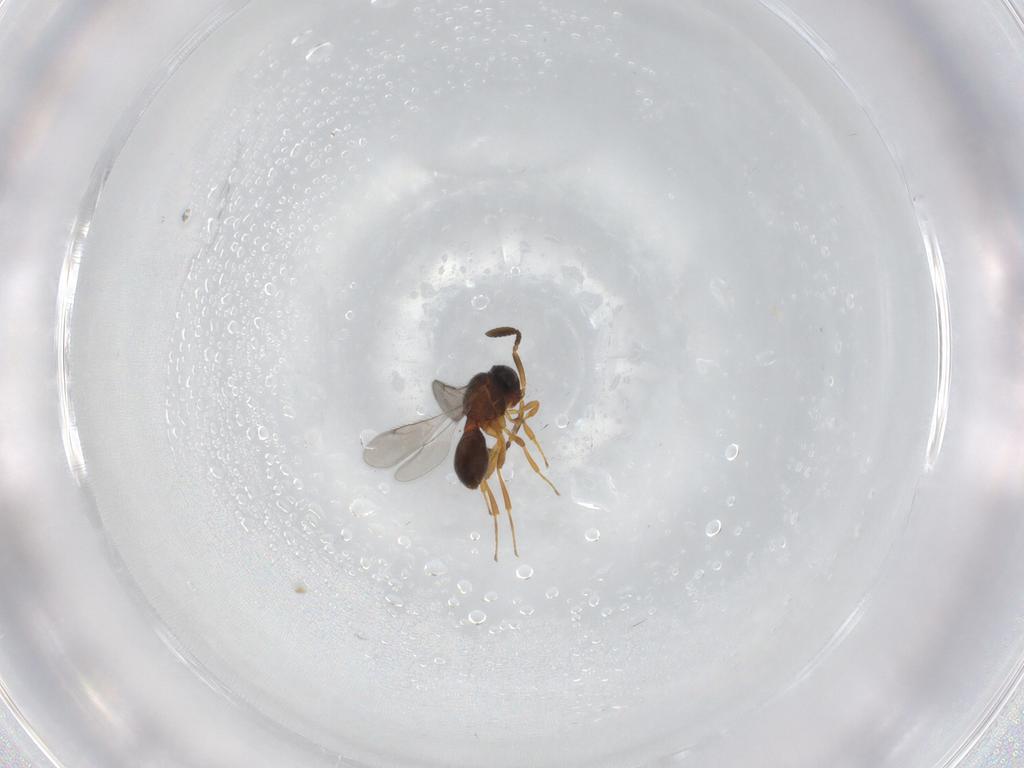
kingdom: Animalia
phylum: Arthropoda
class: Insecta
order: Hymenoptera
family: Scelionidae
